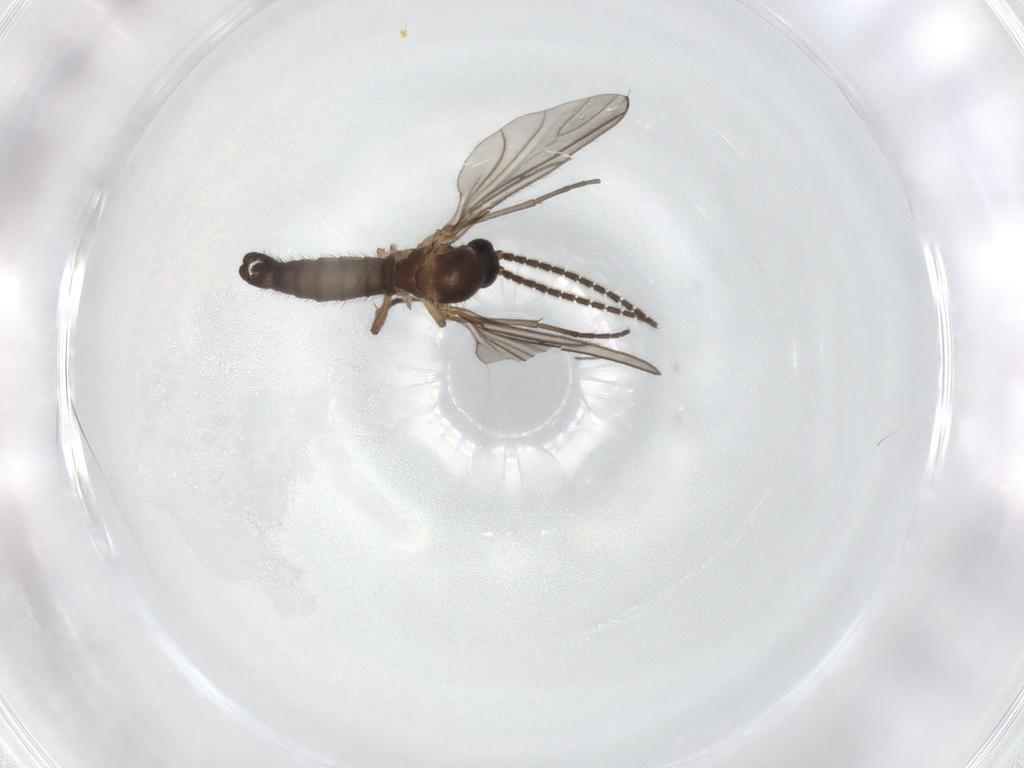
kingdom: Animalia
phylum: Arthropoda
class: Insecta
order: Diptera
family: Sciaridae
